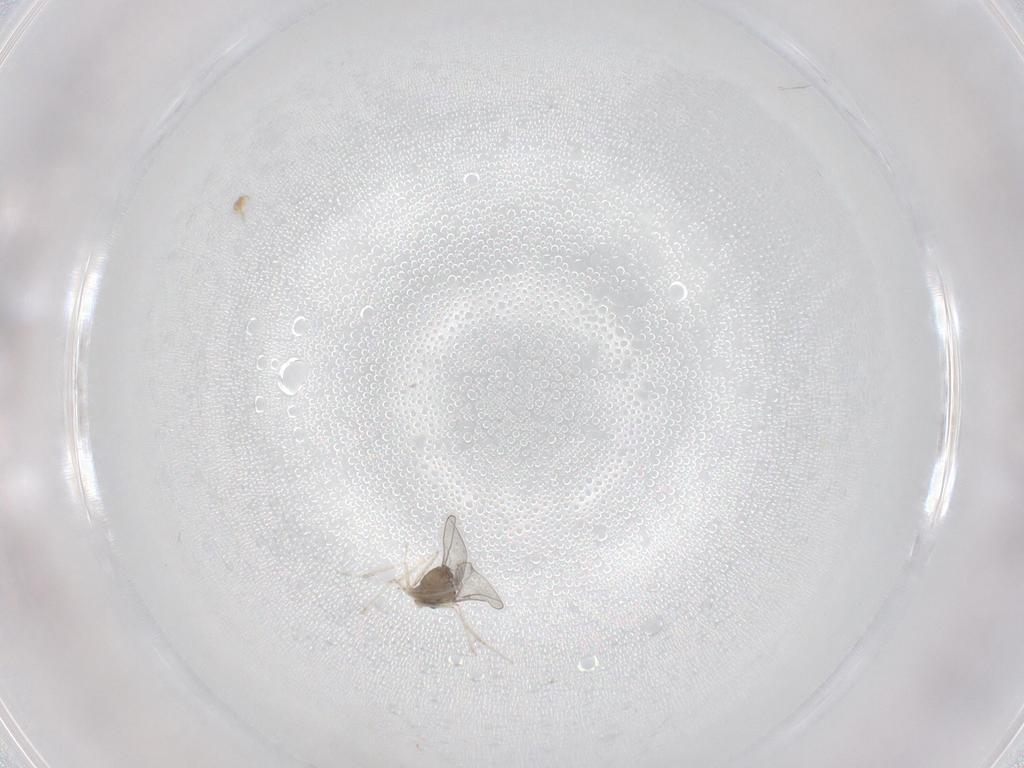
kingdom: Animalia
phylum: Arthropoda
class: Insecta
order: Diptera
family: Cecidomyiidae
